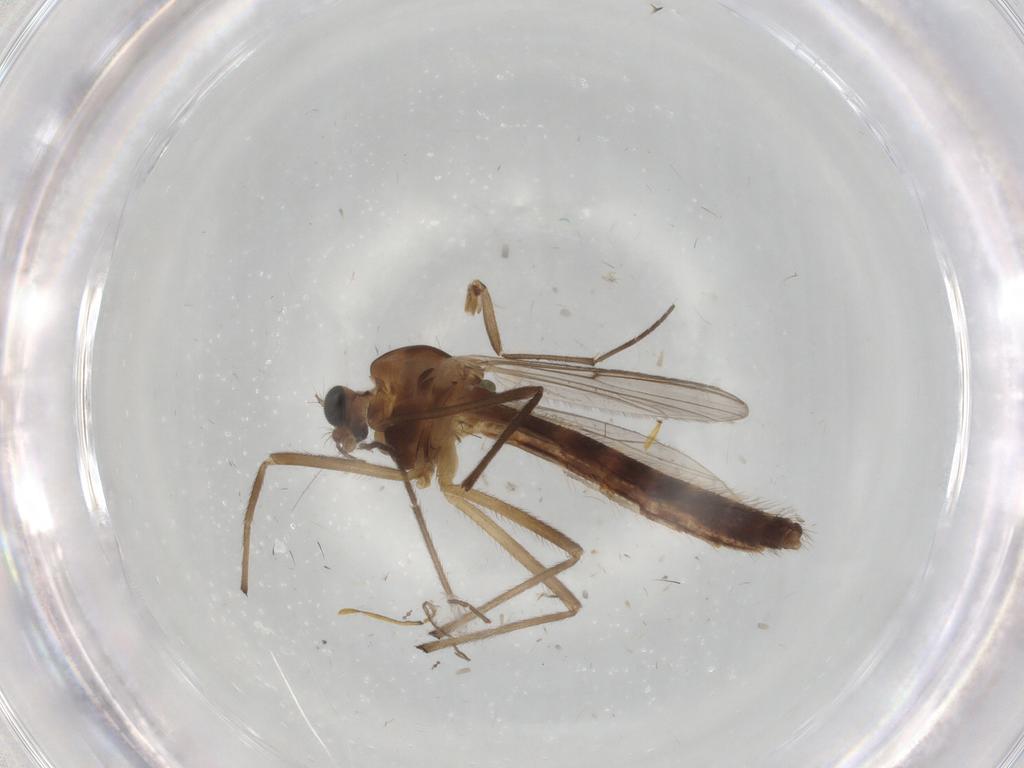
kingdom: Animalia
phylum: Arthropoda
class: Insecta
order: Diptera
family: Chironomidae
